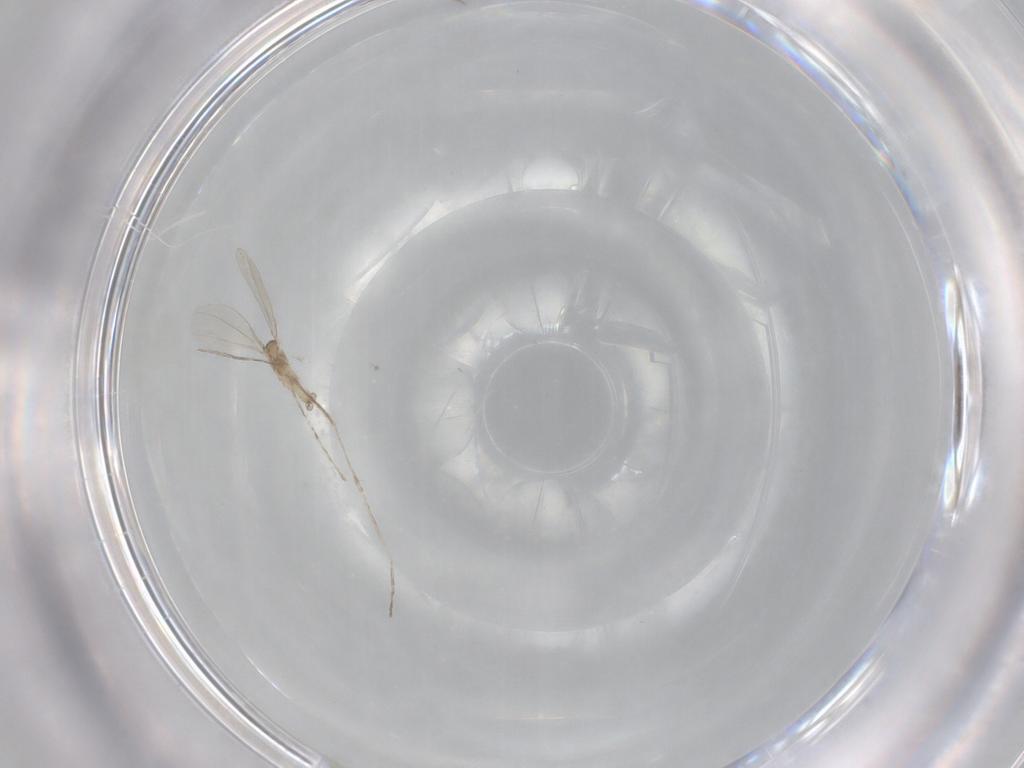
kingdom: Animalia
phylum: Arthropoda
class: Insecta
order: Diptera
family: Cecidomyiidae
